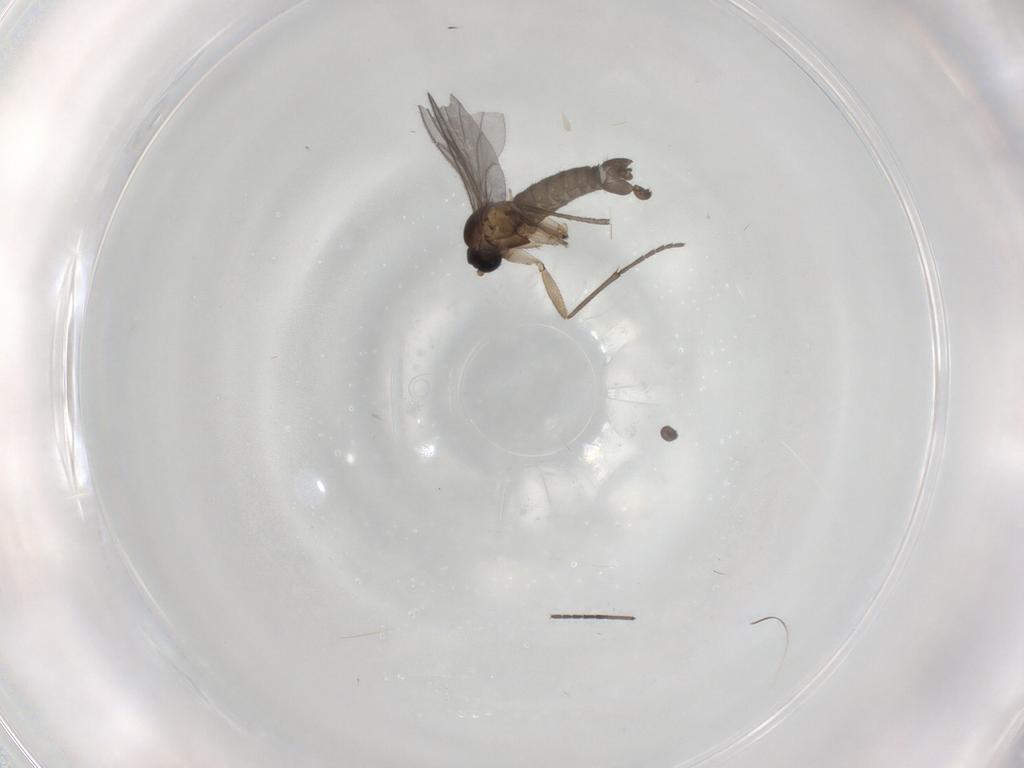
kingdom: Animalia
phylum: Arthropoda
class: Insecta
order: Diptera
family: Sciaridae
